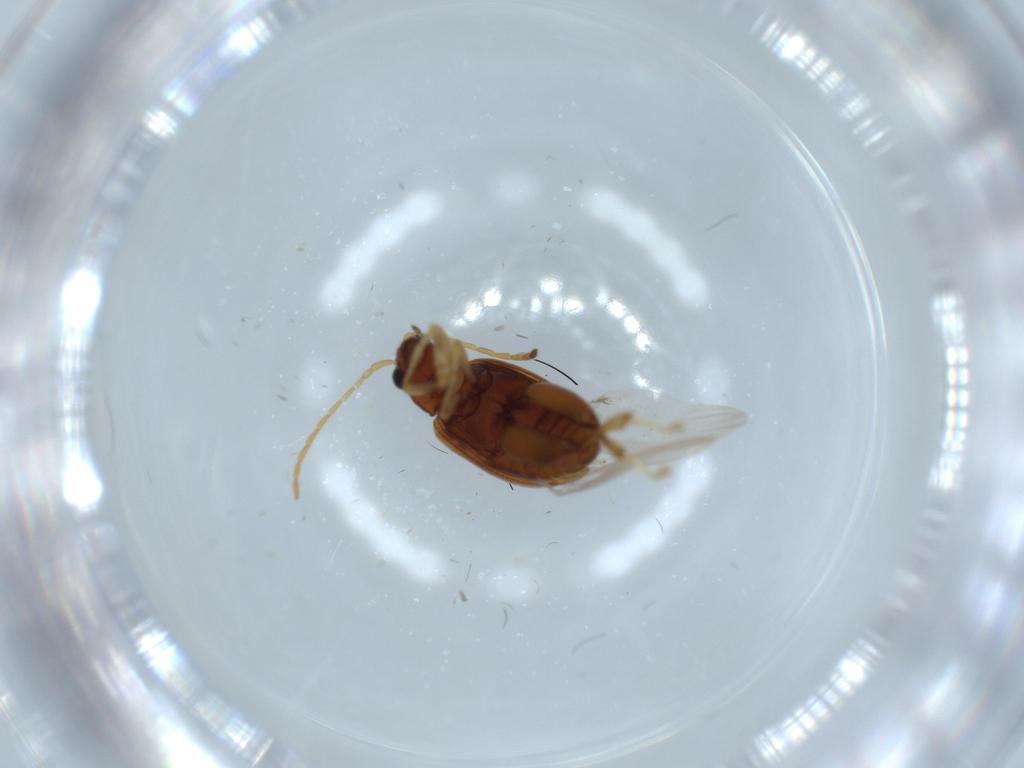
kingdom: Animalia
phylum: Arthropoda
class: Insecta
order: Coleoptera
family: Chrysomelidae
